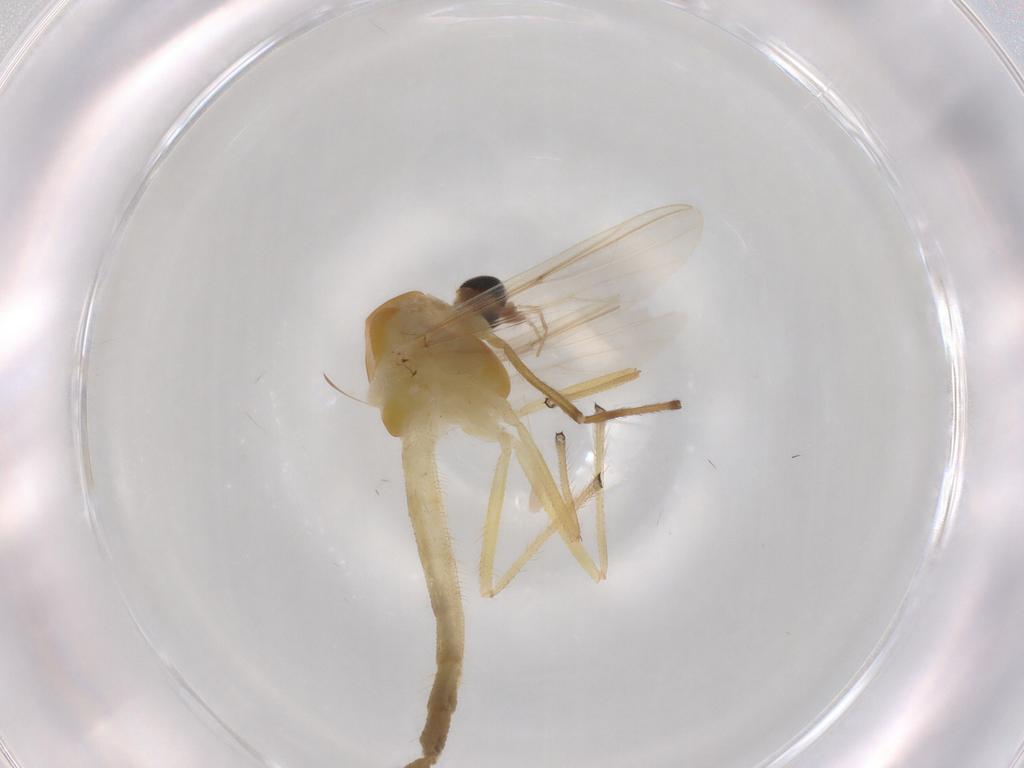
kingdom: Animalia
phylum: Arthropoda
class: Insecta
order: Diptera
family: Chironomidae
